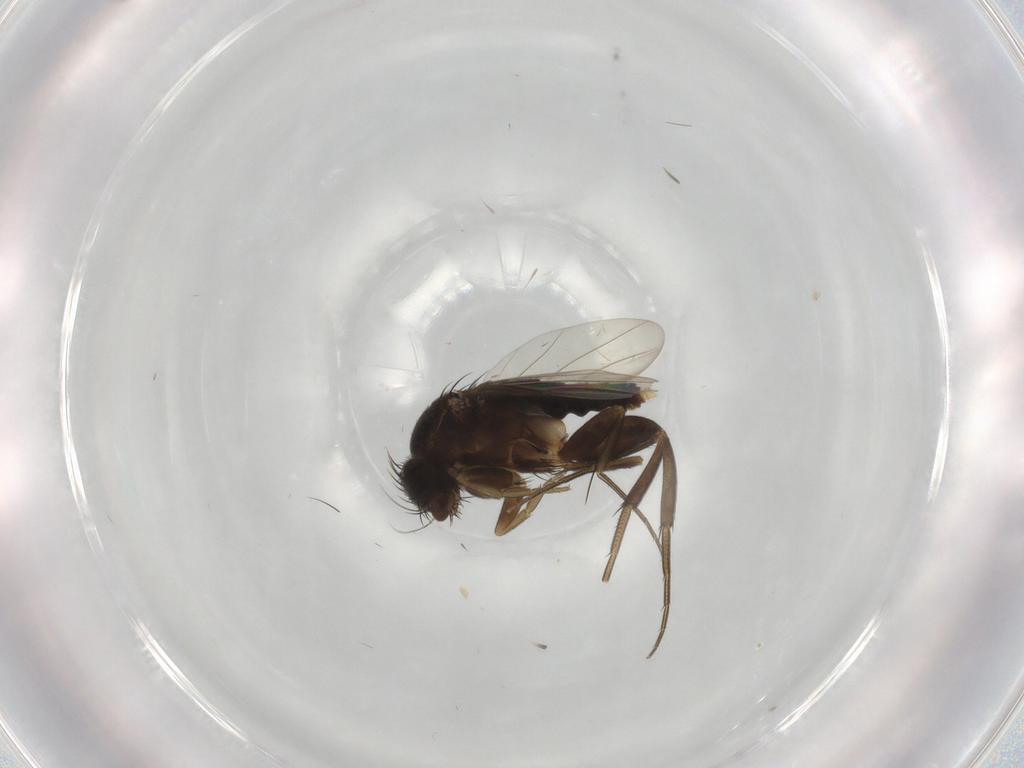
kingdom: Animalia
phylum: Arthropoda
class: Insecta
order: Diptera
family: Phoridae
